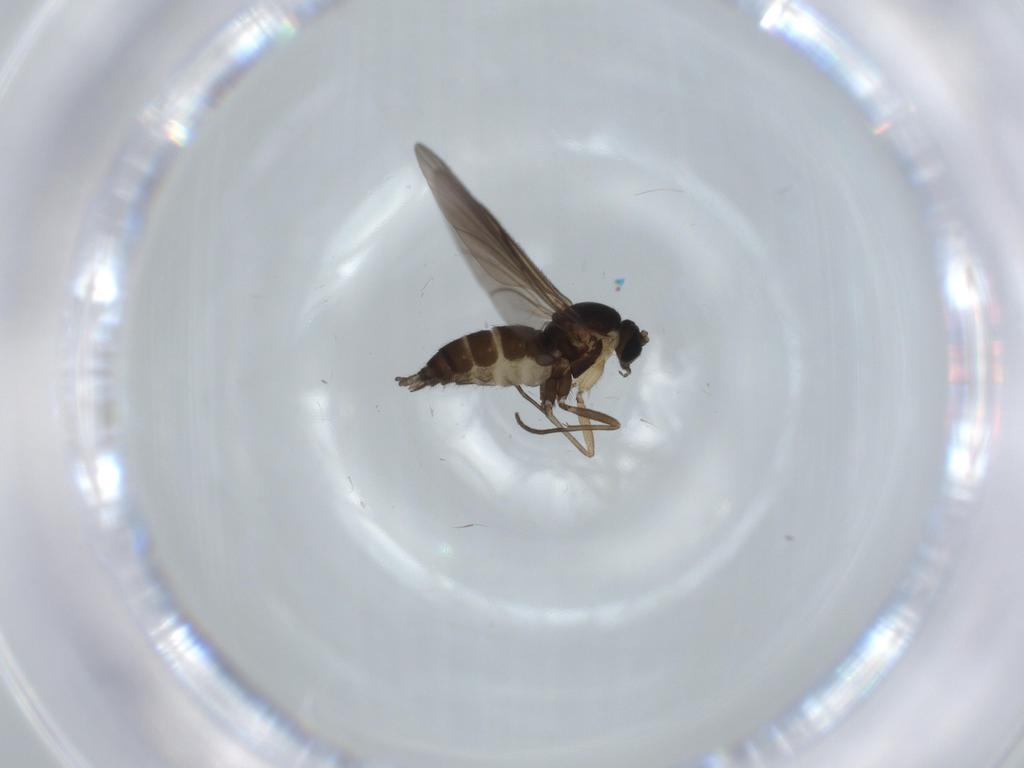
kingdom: Animalia
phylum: Arthropoda
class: Insecta
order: Diptera
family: Sciaridae
